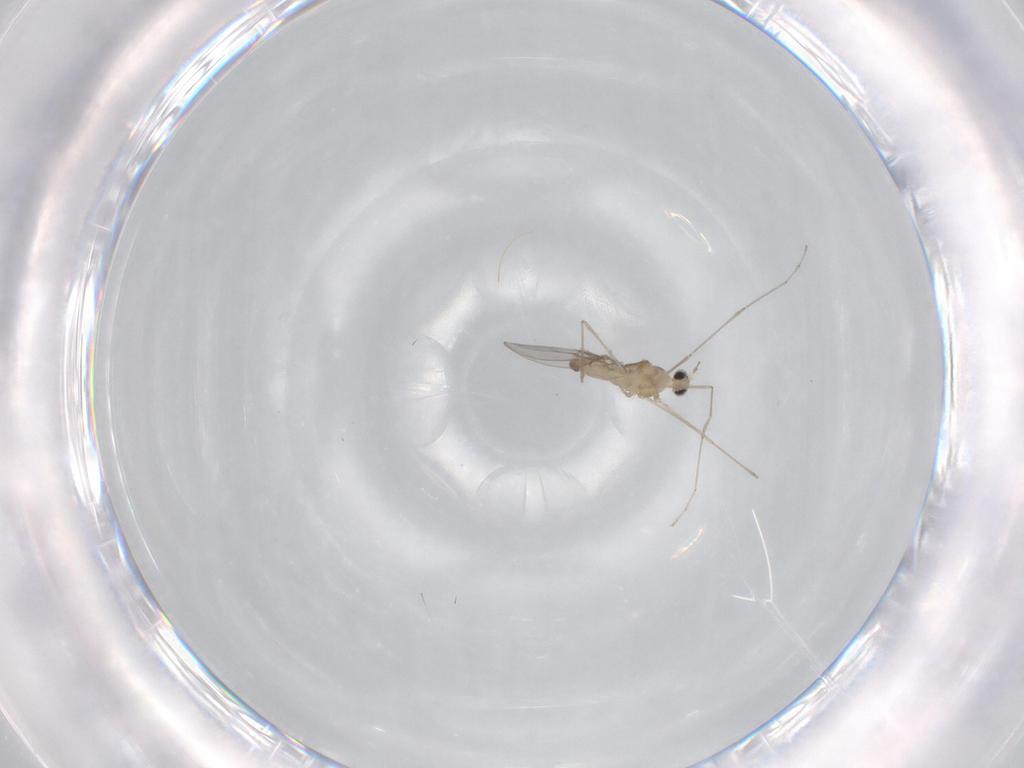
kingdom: Animalia
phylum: Arthropoda
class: Insecta
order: Diptera
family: Cecidomyiidae
